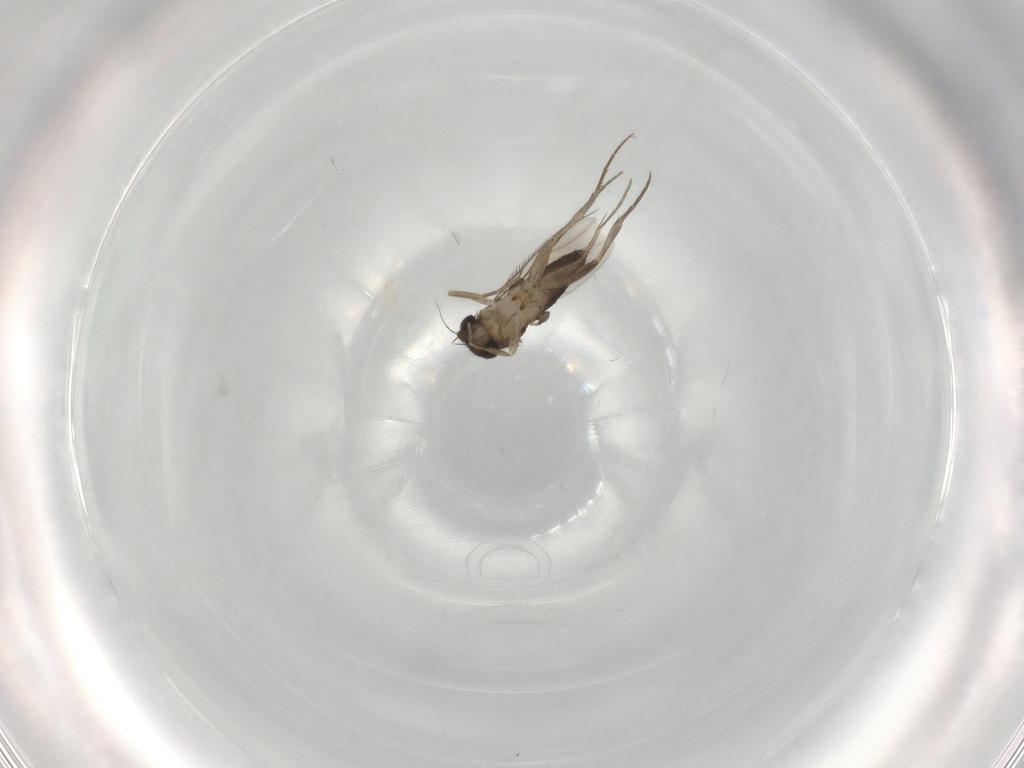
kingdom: Animalia
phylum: Arthropoda
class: Insecta
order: Diptera
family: Phoridae
